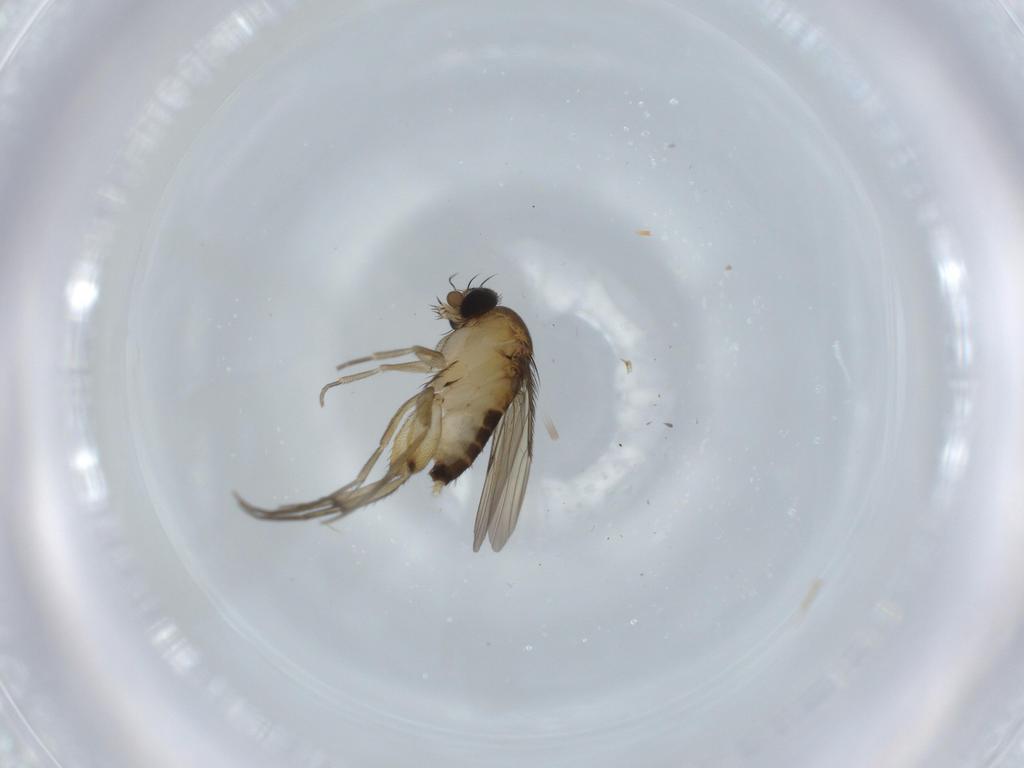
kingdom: Animalia
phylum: Arthropoda
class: Insecta
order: Diptera
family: Phoridae
